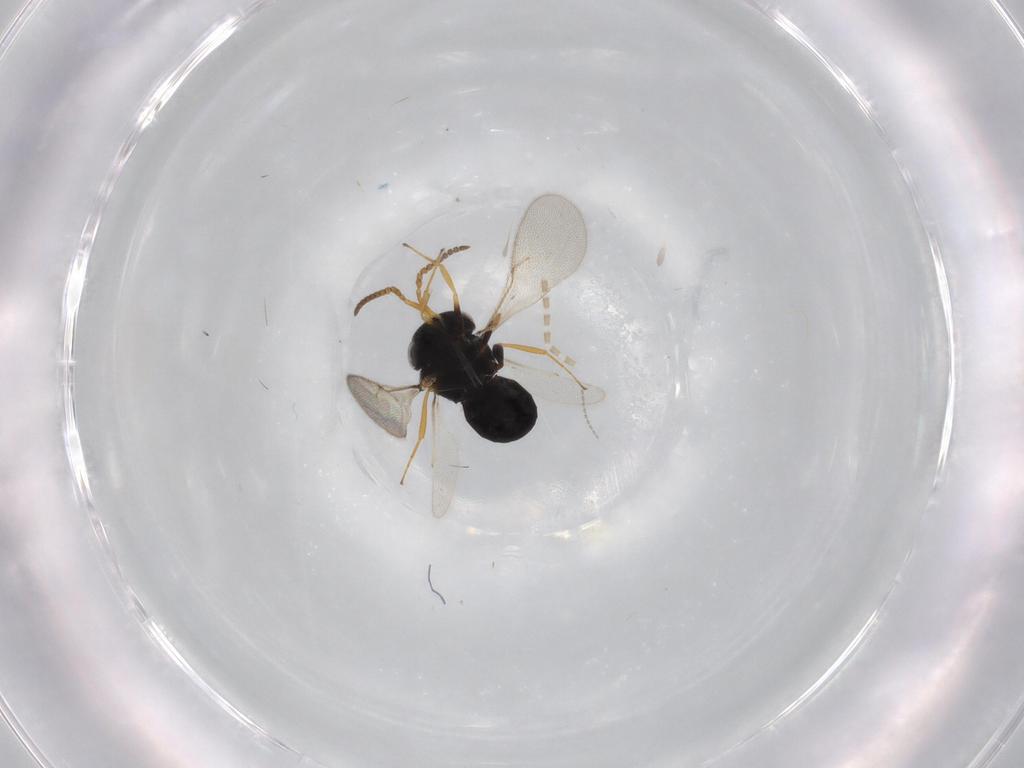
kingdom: Animalia
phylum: Arthropoda
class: Insecta
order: Hymenoptera
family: Scelionidae
